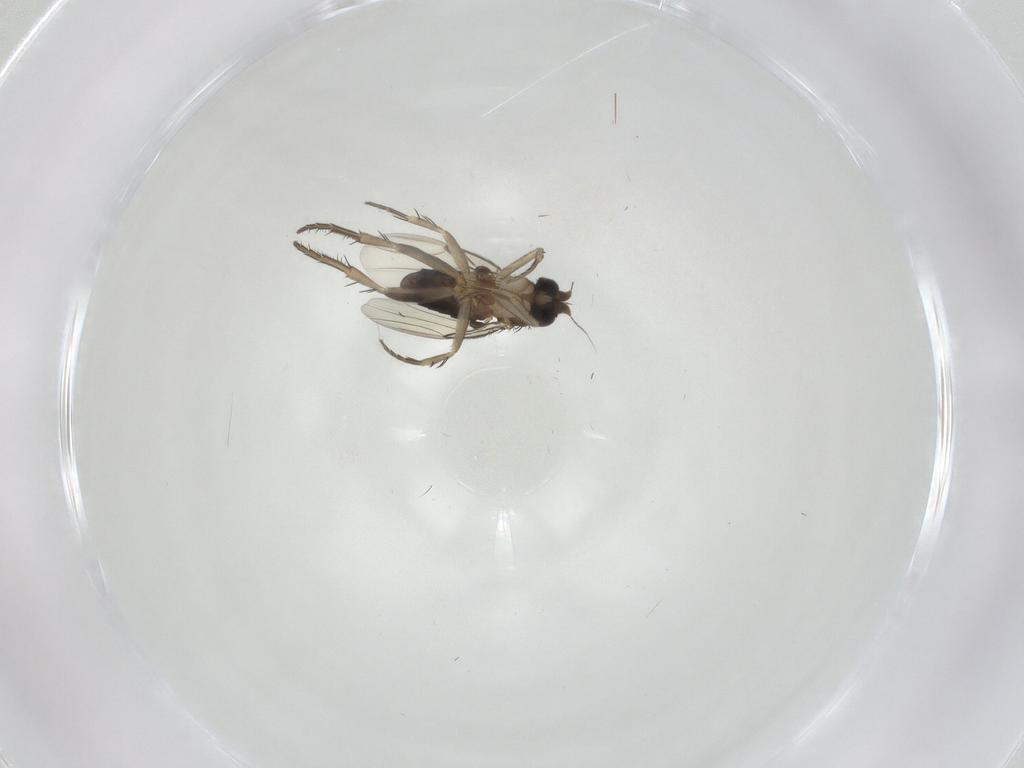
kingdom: Animalia
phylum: Arthropoda
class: Insecta
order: Diptera
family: Phoridae
